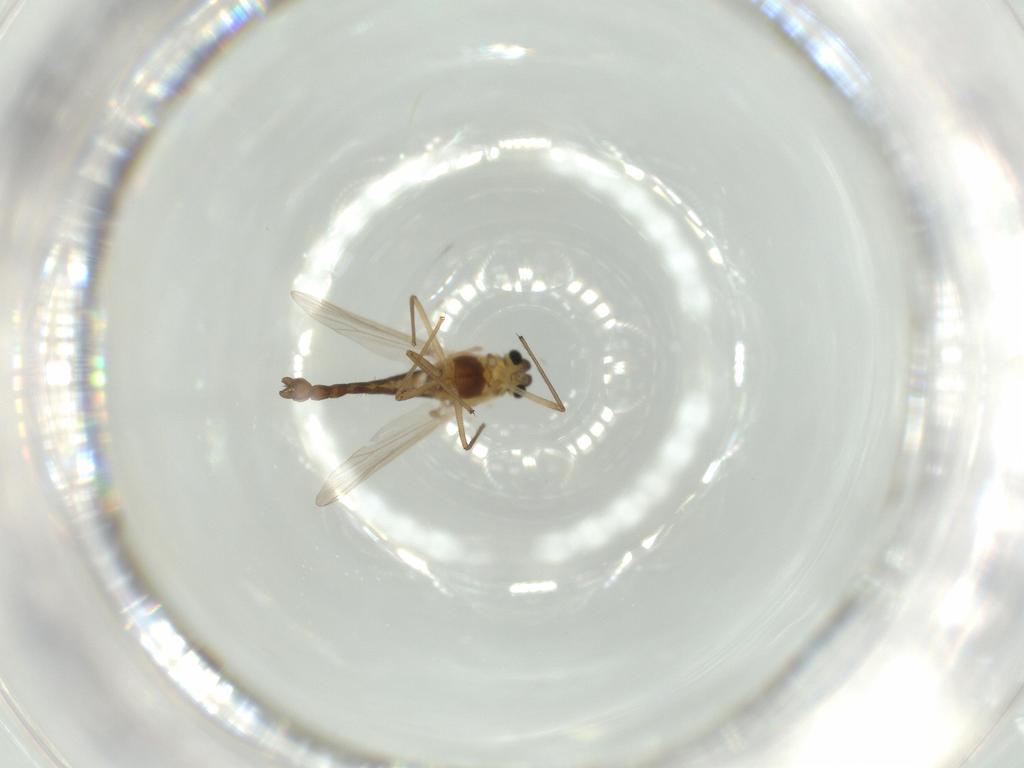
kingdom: Animalia
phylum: Arthropoda
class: Insecta
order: Diptera
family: Chironomidae
